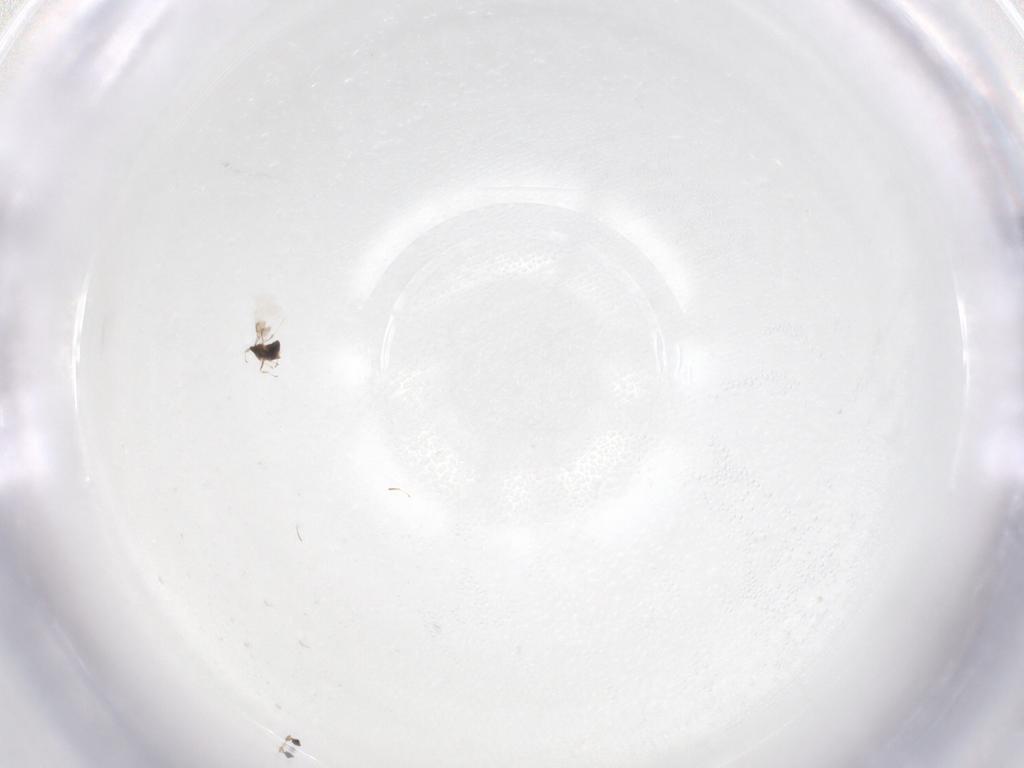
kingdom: Animalia
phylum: Arthropoda
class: Insecta
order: Hymenoptera
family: Trichogrammatidae
